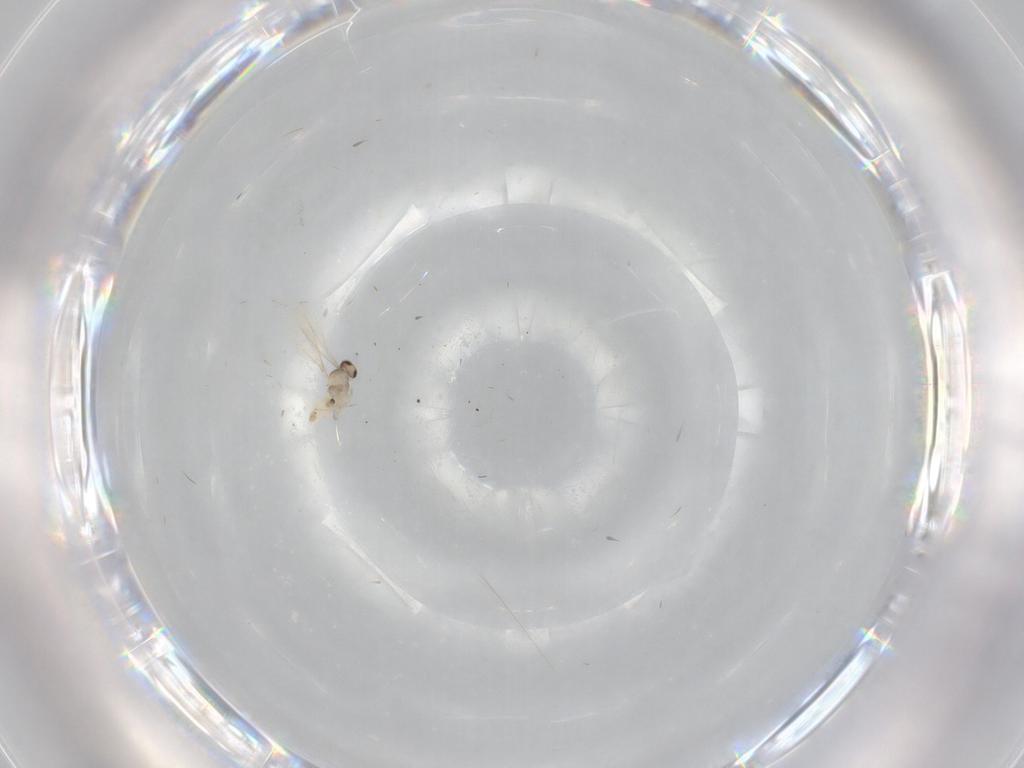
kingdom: Animalia
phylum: Arthropoda
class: Insecta
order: Diptera
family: Cecidomyiidae
